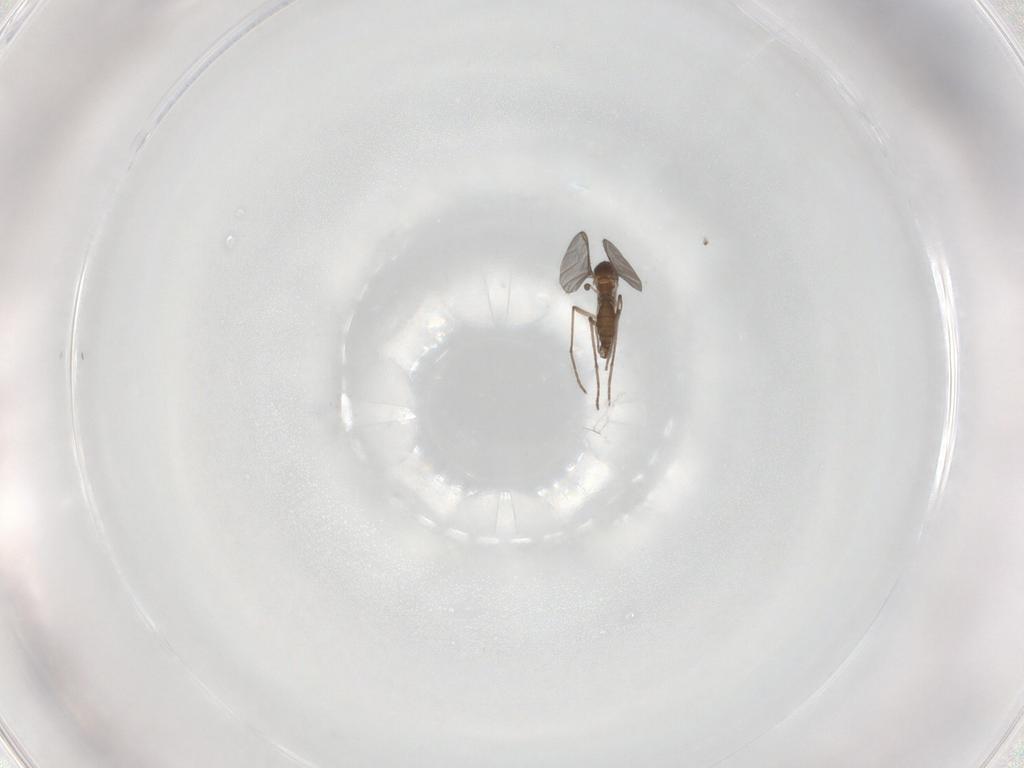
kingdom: Animalia
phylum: Arthropoda
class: Insecta
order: Diptera
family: Sciaridae
